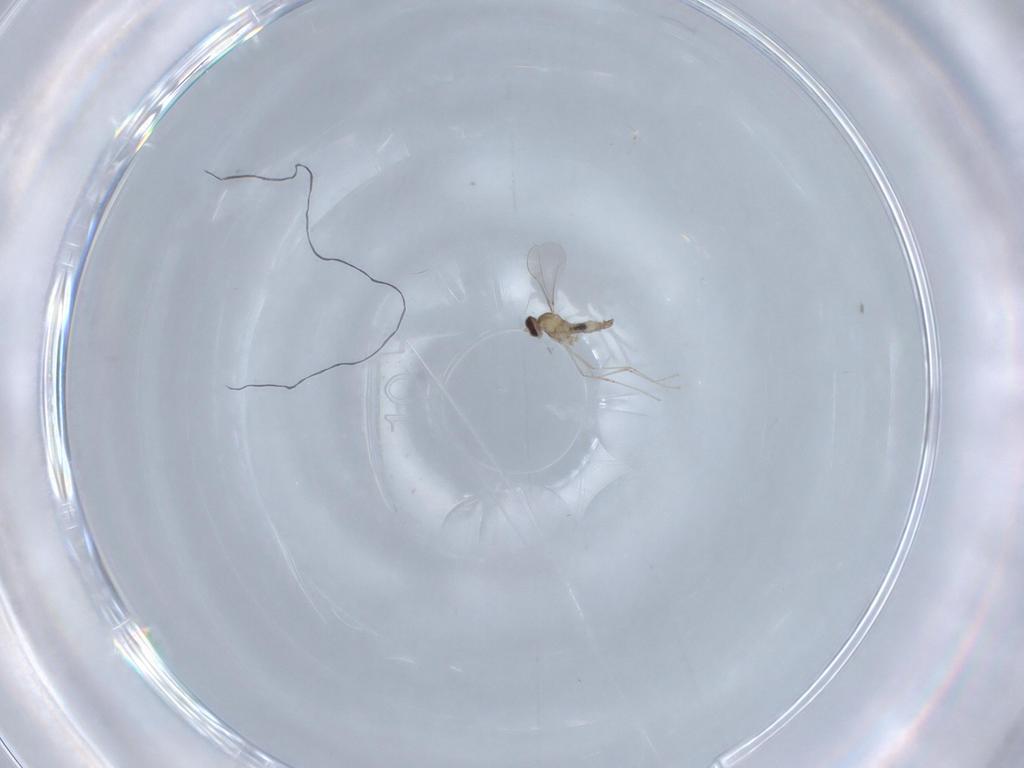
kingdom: Animalia
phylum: Arthropoda
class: Insecta
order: Diptera
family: Cecidomyiidae
